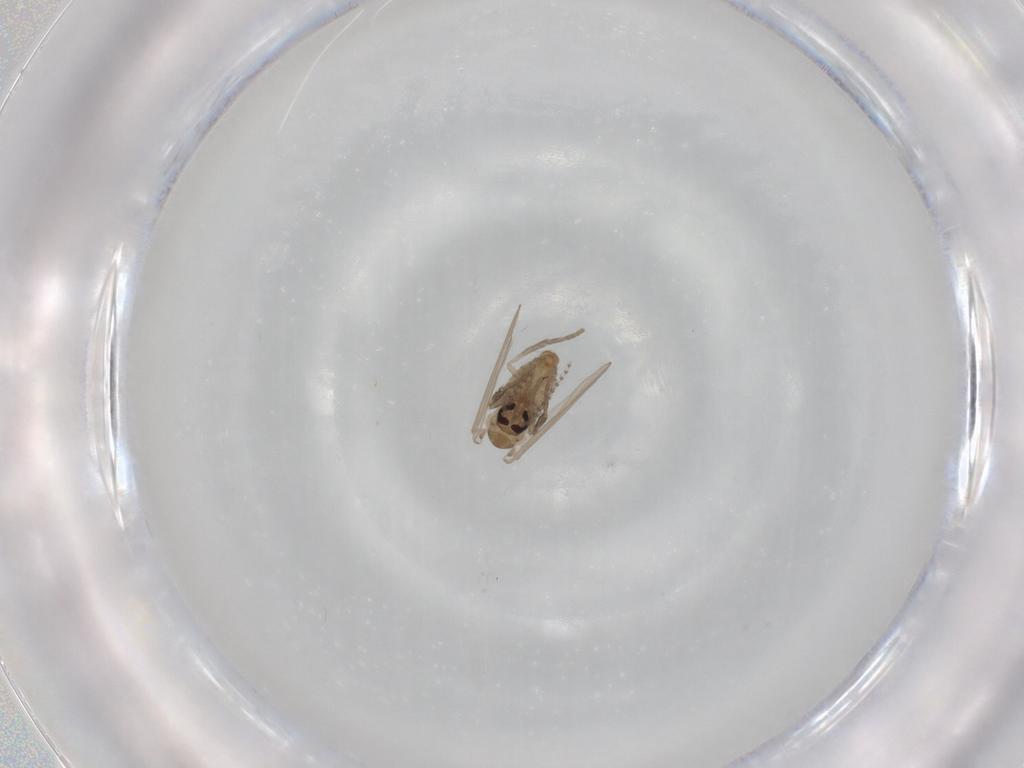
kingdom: Animalia
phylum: Arthropoda
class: Insecta
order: Diptera
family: Psychodidae
